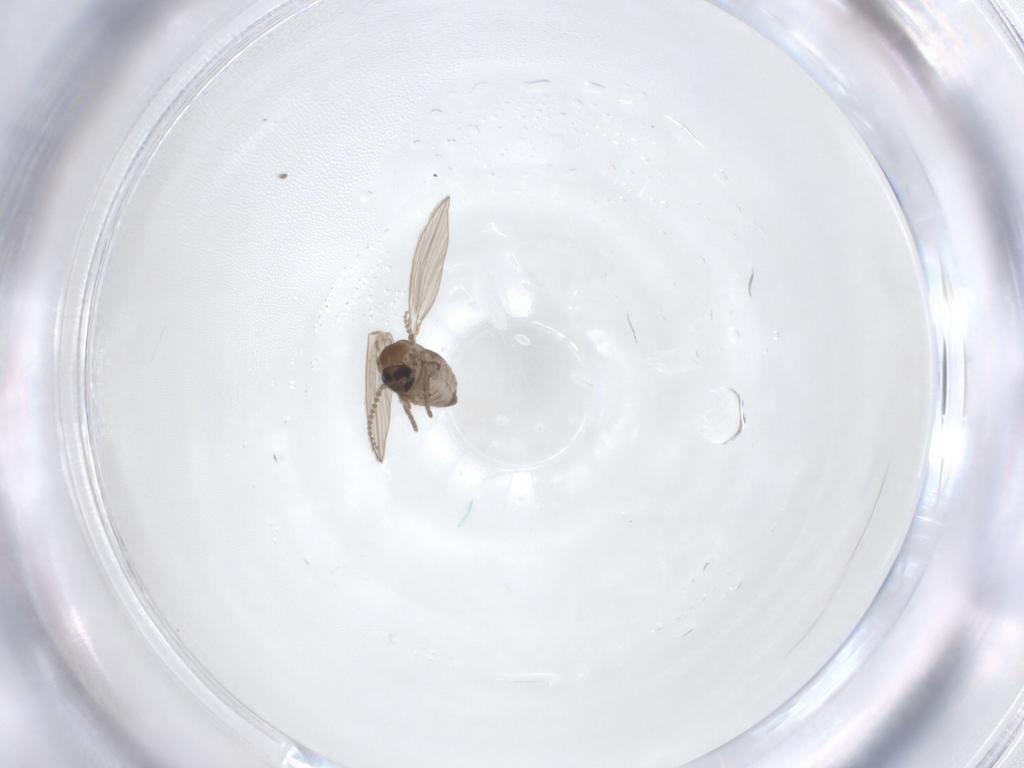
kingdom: Animalia
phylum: Arthropoda
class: Insecta
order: Diptera
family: Psychodidae
